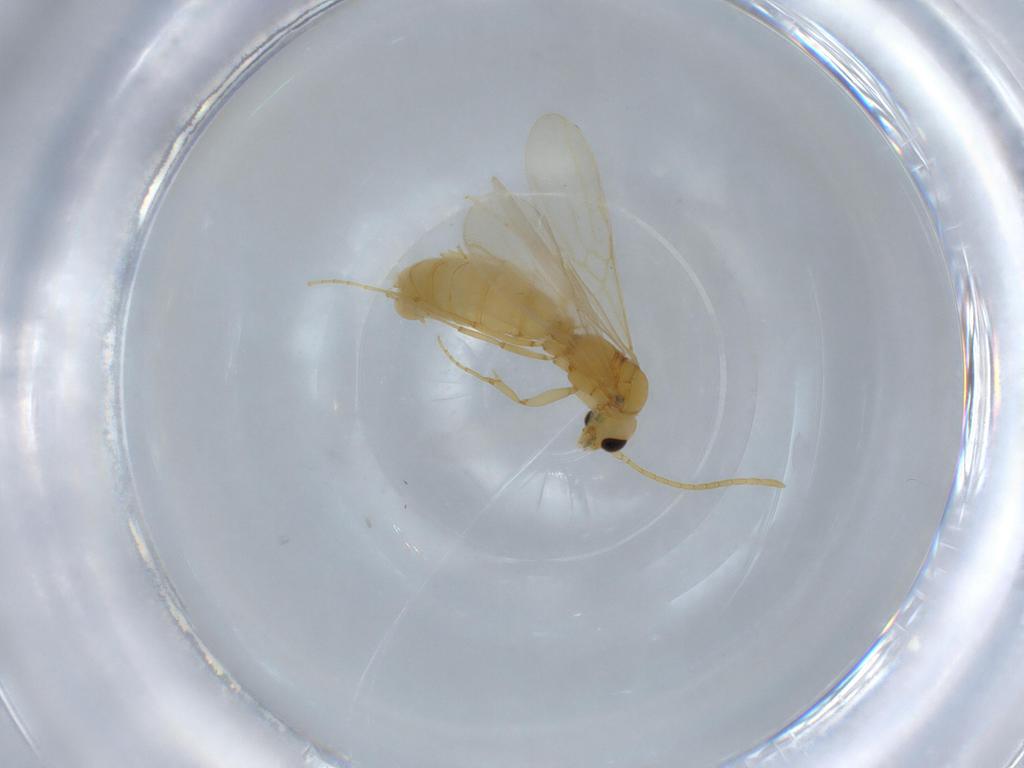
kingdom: Animalia
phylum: Arthropoda
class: Insecta
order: Hymenoptera
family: Formicidae
